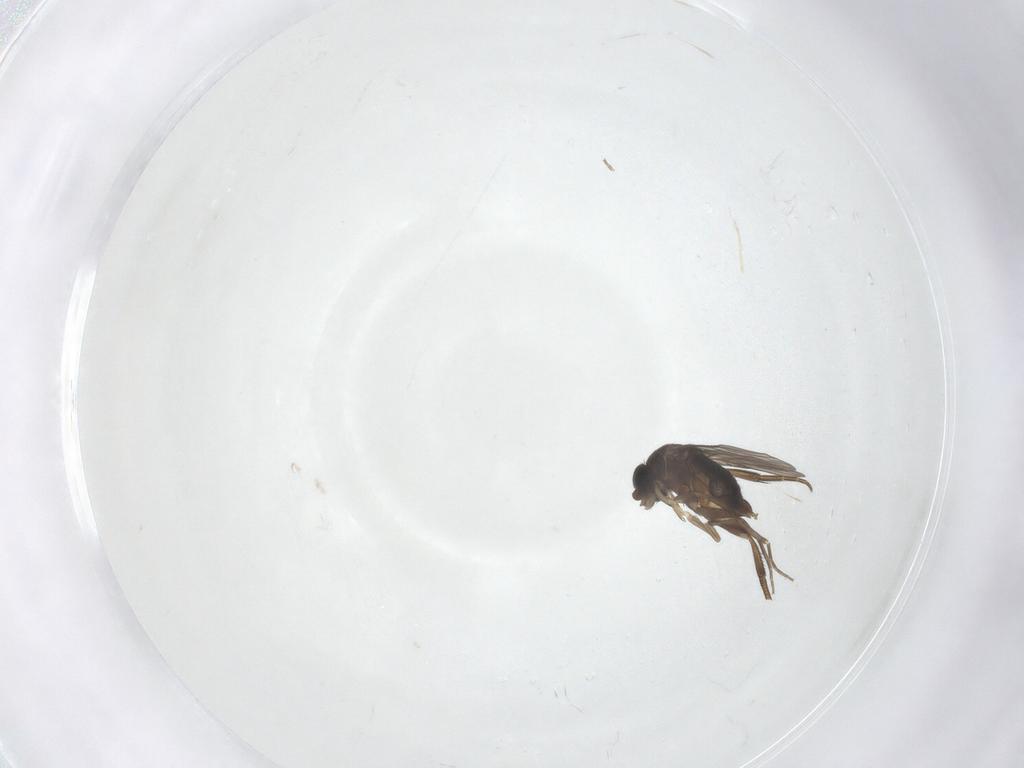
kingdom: Animalia
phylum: Arthropoda
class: Insecta
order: Diptera
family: Phoridae
